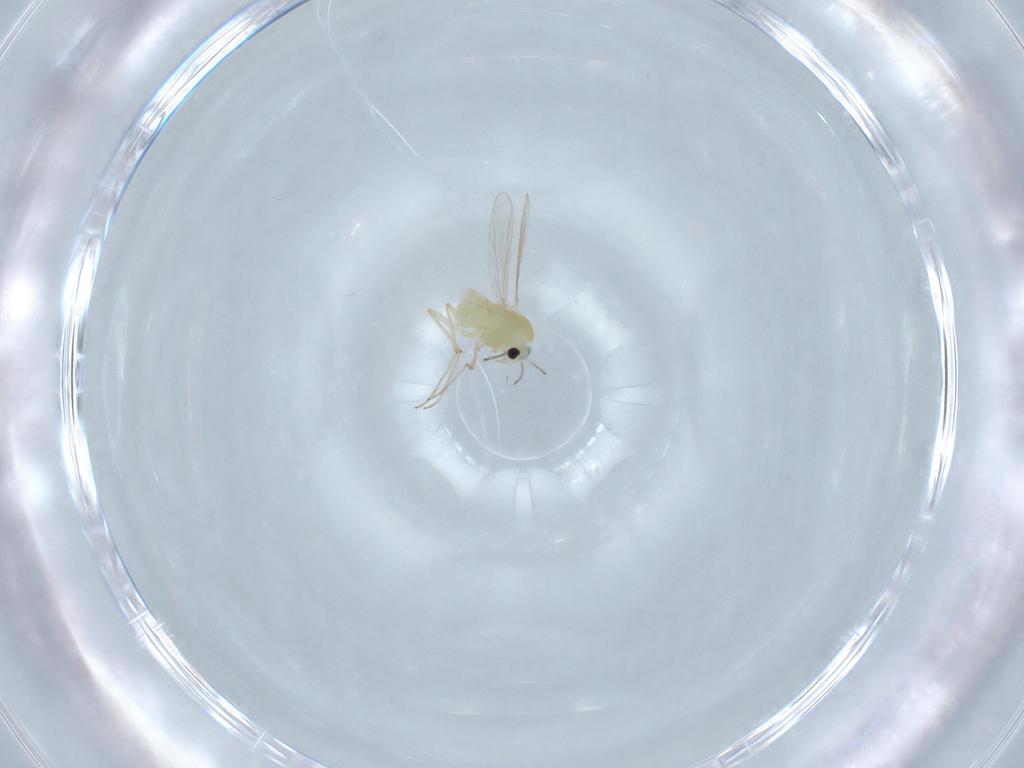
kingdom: Animalia
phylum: Arthropoda
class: Insecta
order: Diptera
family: Cecidomyiidae
